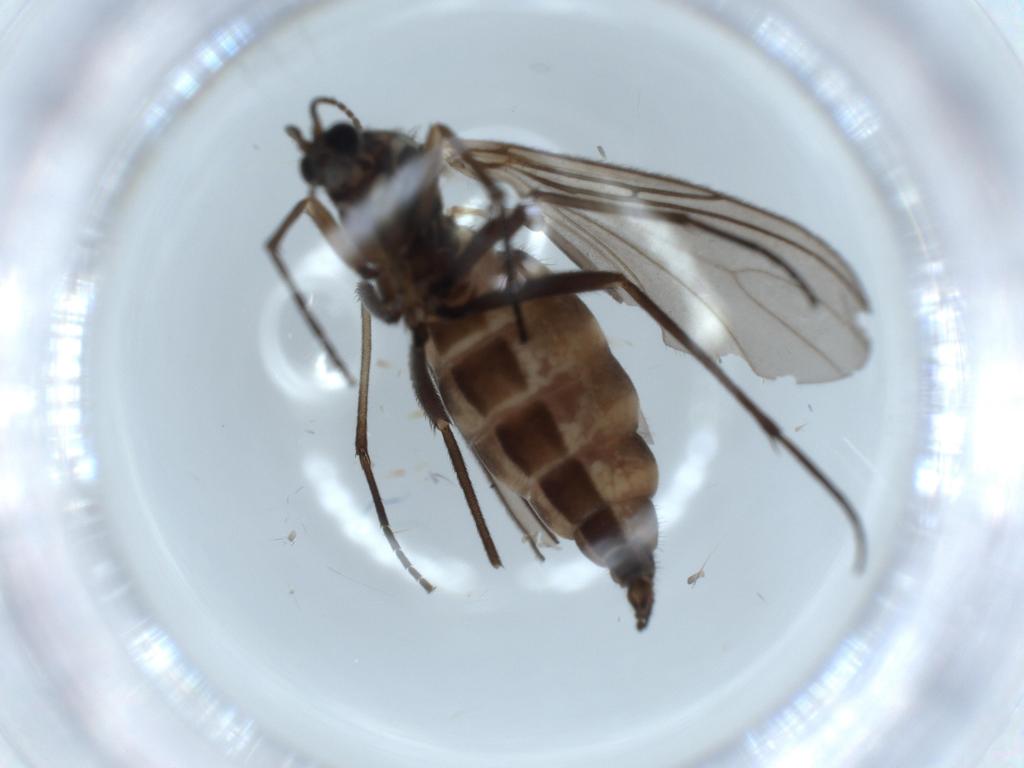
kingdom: Animalia
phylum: Arthropoda
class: Insecta
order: Diptera
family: Sciaridae
